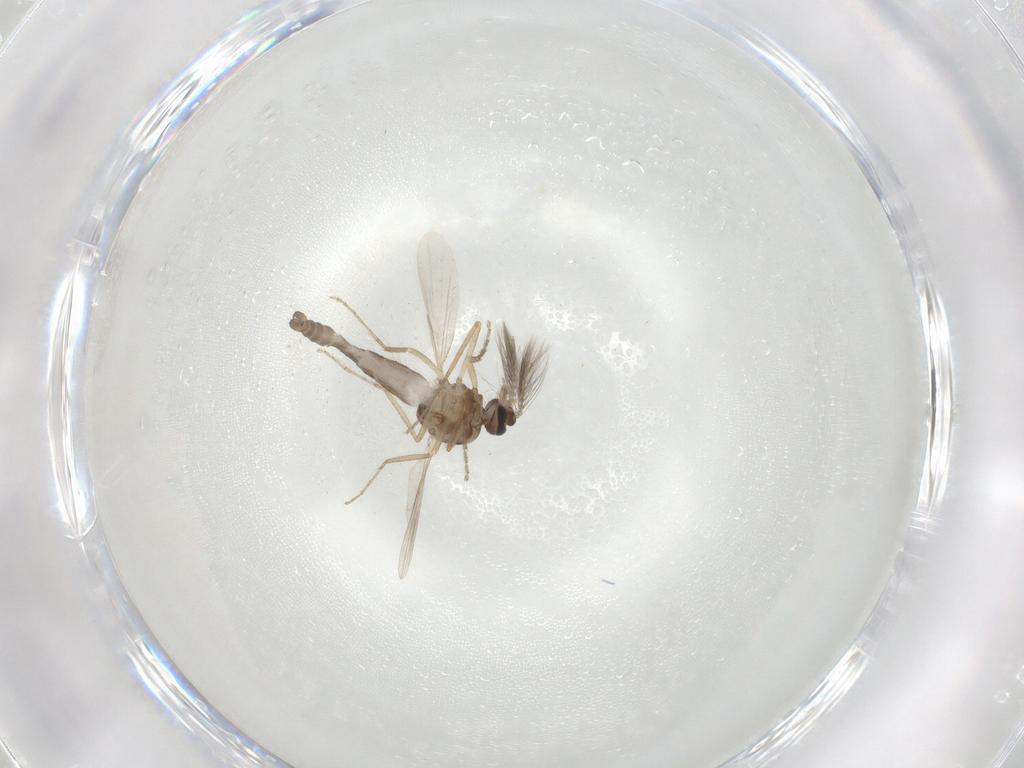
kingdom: Animalia
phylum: Arthropoda
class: Insecta
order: Diptera
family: Ceratopogonidae
